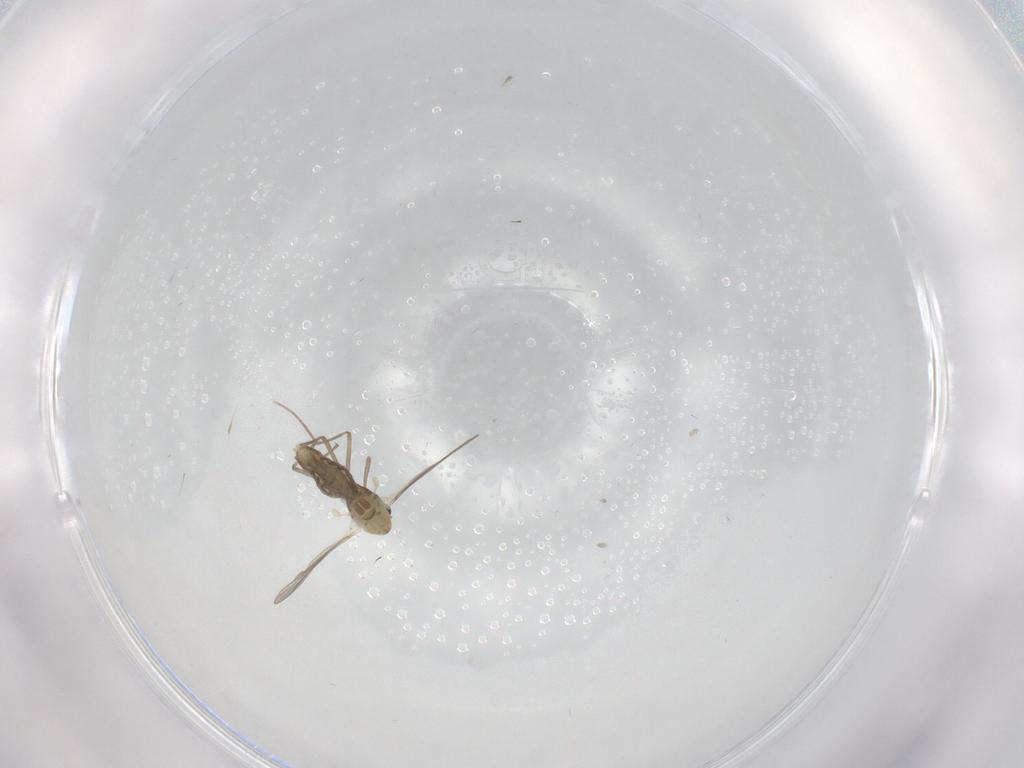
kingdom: Animalia
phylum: Arthropoda
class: Insecta
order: Diptera
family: Chironomidae
